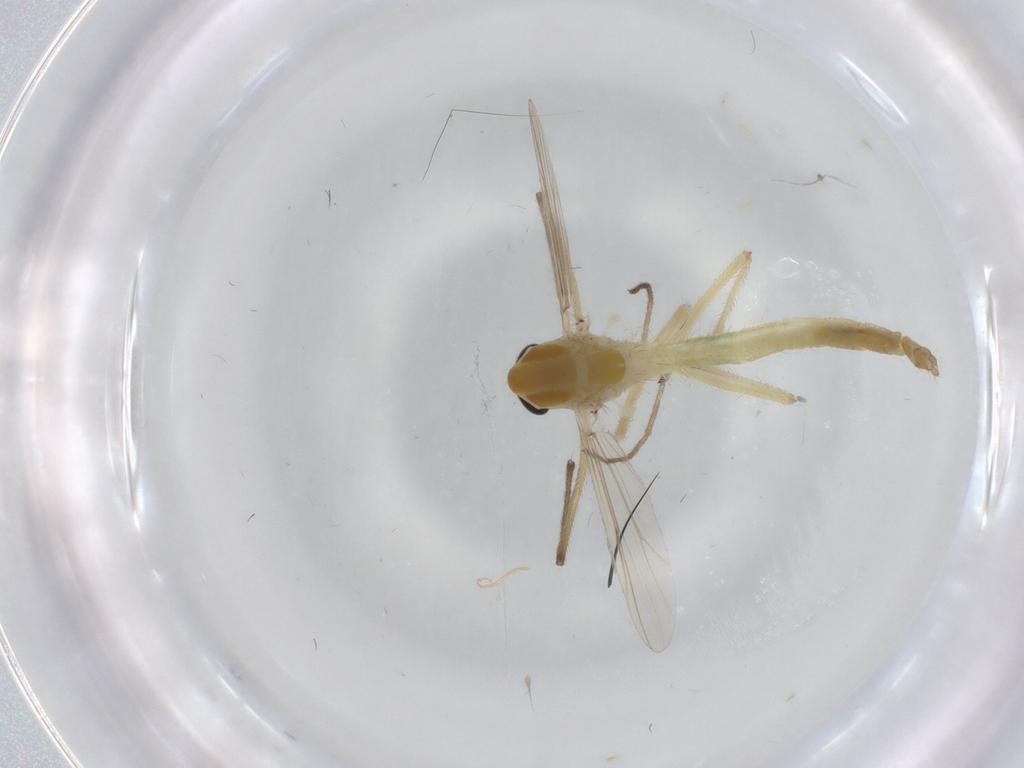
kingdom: Animalia
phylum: Arthropoda
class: Insecta
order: Diptera
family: Chironomidae
